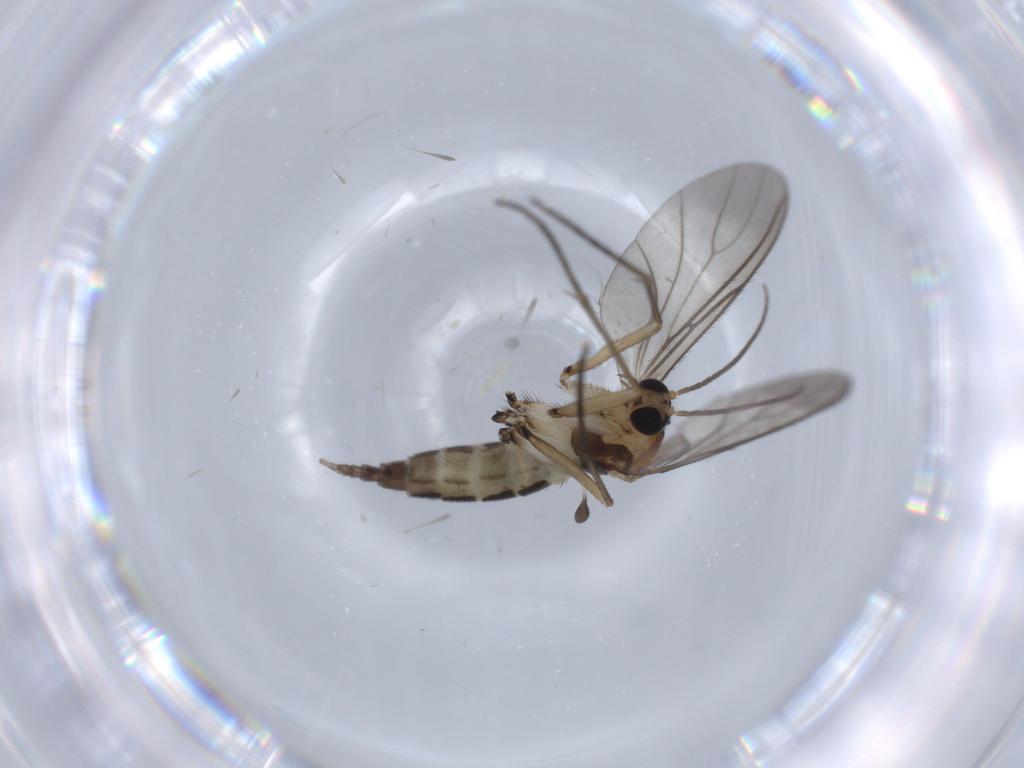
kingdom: Animalia
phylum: Arthropoda
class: Insecta
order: Diptera
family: Sciaridae
